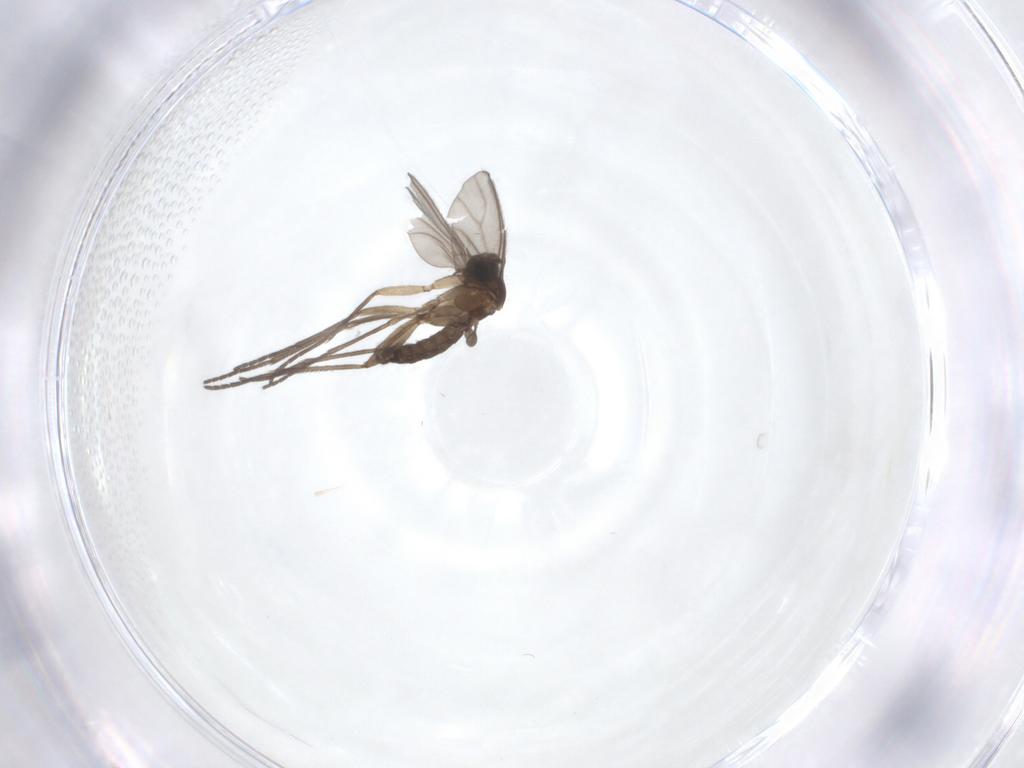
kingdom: Animalia
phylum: Arthropoda
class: Insecta
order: Diptera
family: Sciaridae
